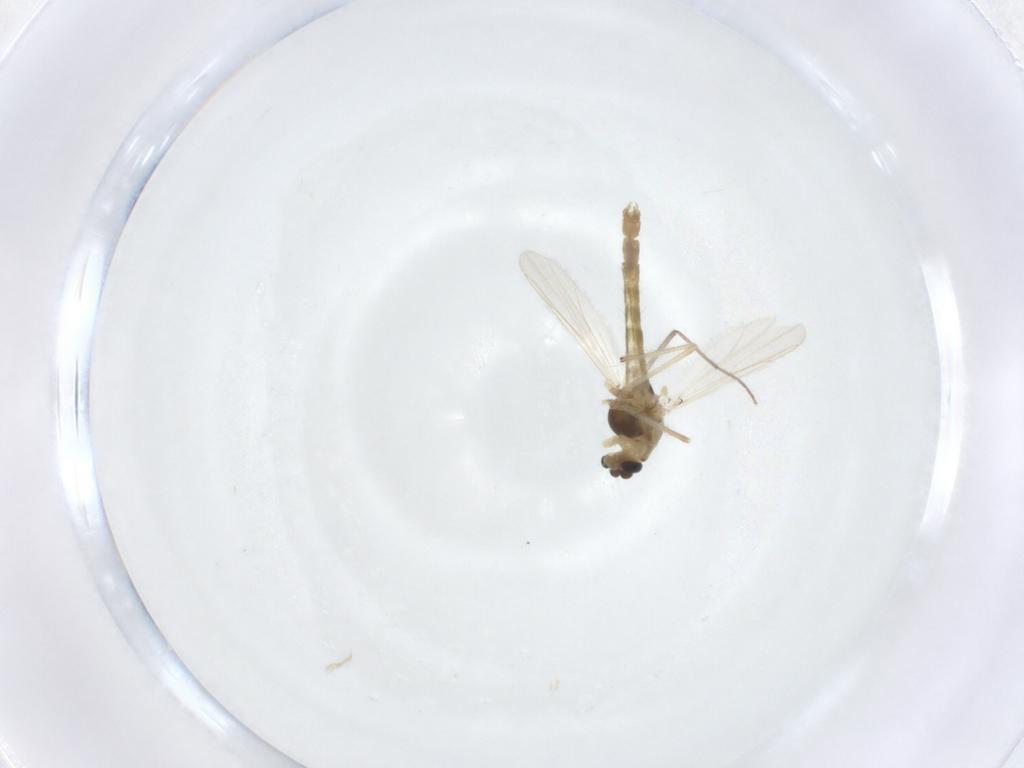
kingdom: Animalia
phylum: Arthropoda
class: Insecta
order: Diptera
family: Chironomidae
